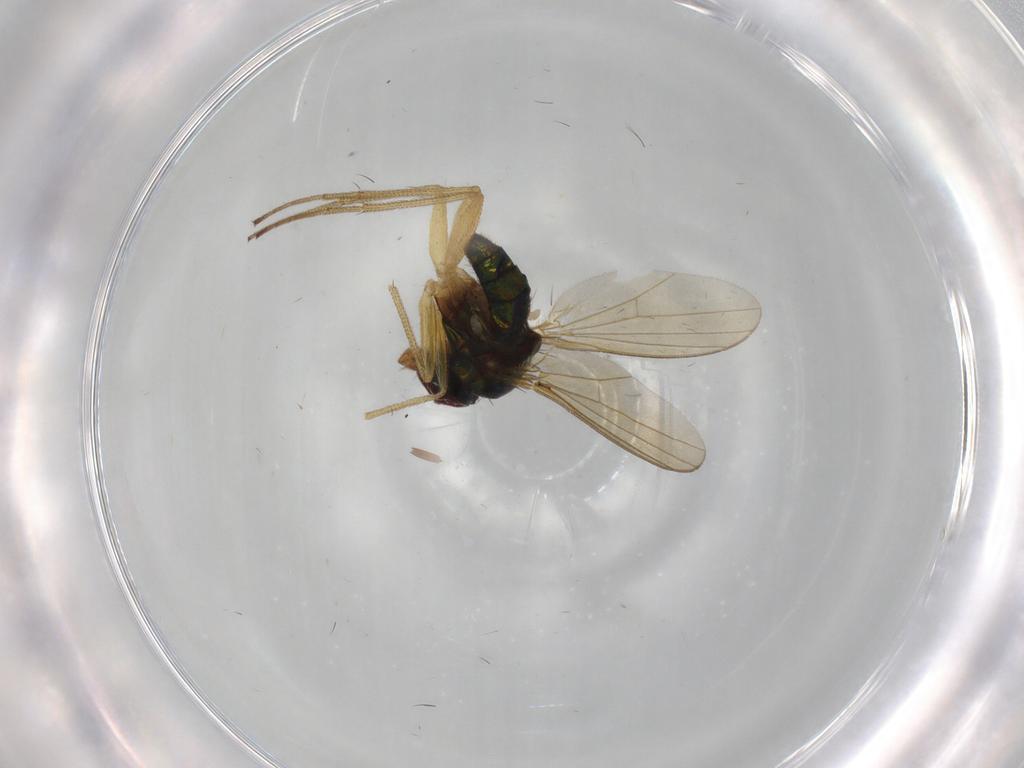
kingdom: Animalia
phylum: Arthropoda
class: Insecta
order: Diptera
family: Dolichopodidae
